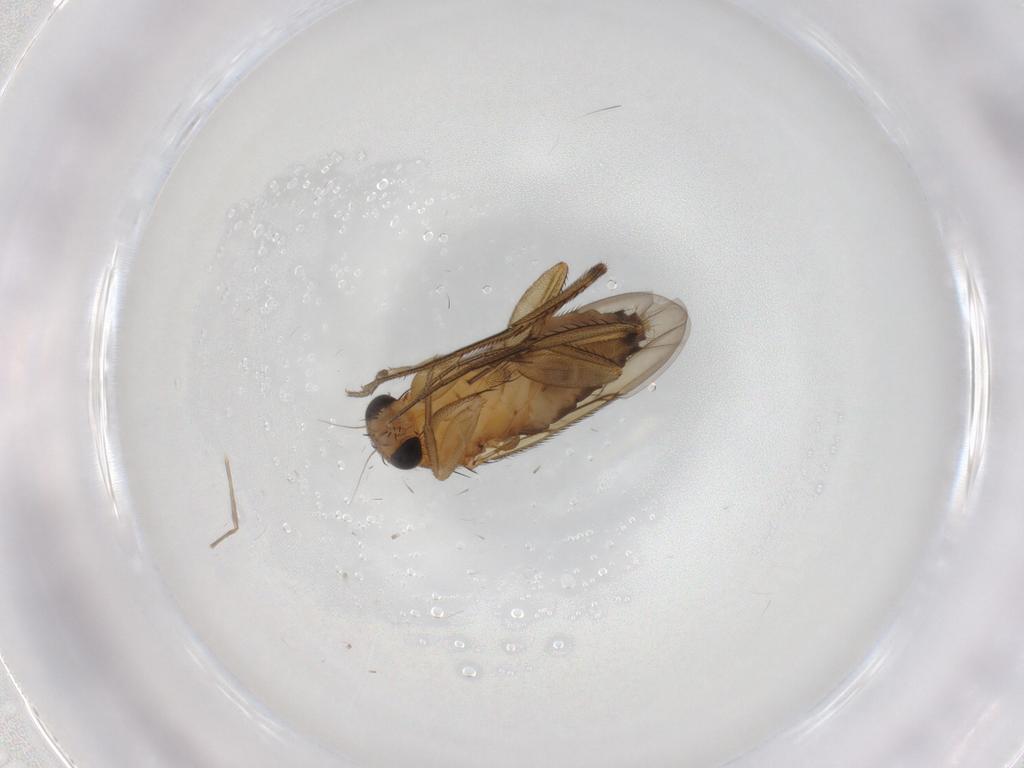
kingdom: Animalia
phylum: Arthropoda
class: Insecta
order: Diptera
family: Phoridae
